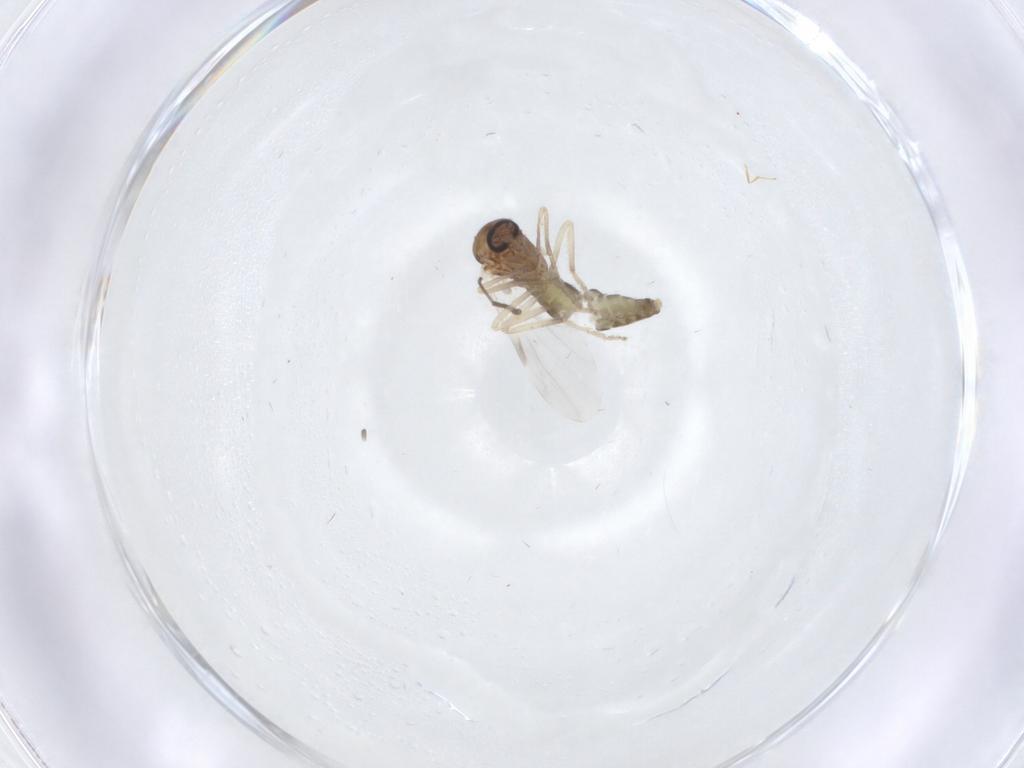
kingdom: Animalia
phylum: Arthropoda
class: Insecta
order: Diptera
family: Ceratopogonidae
